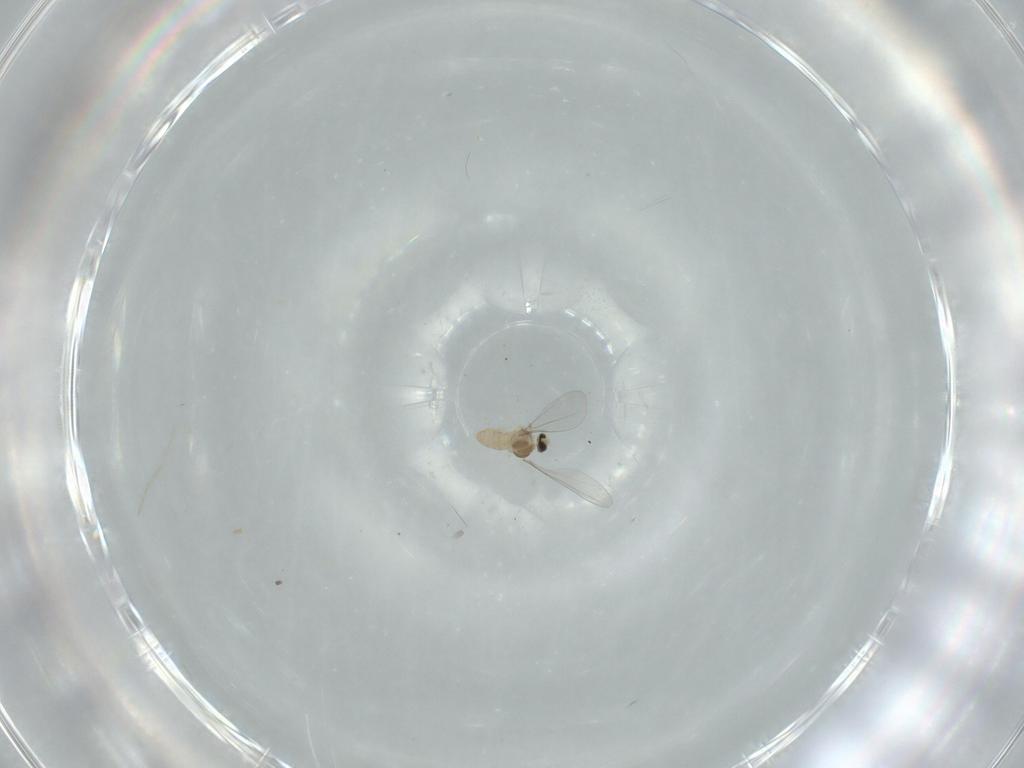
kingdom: Animalia
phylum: Arthropoda
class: Insecta
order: Diptera
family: Cecidomyiidae
